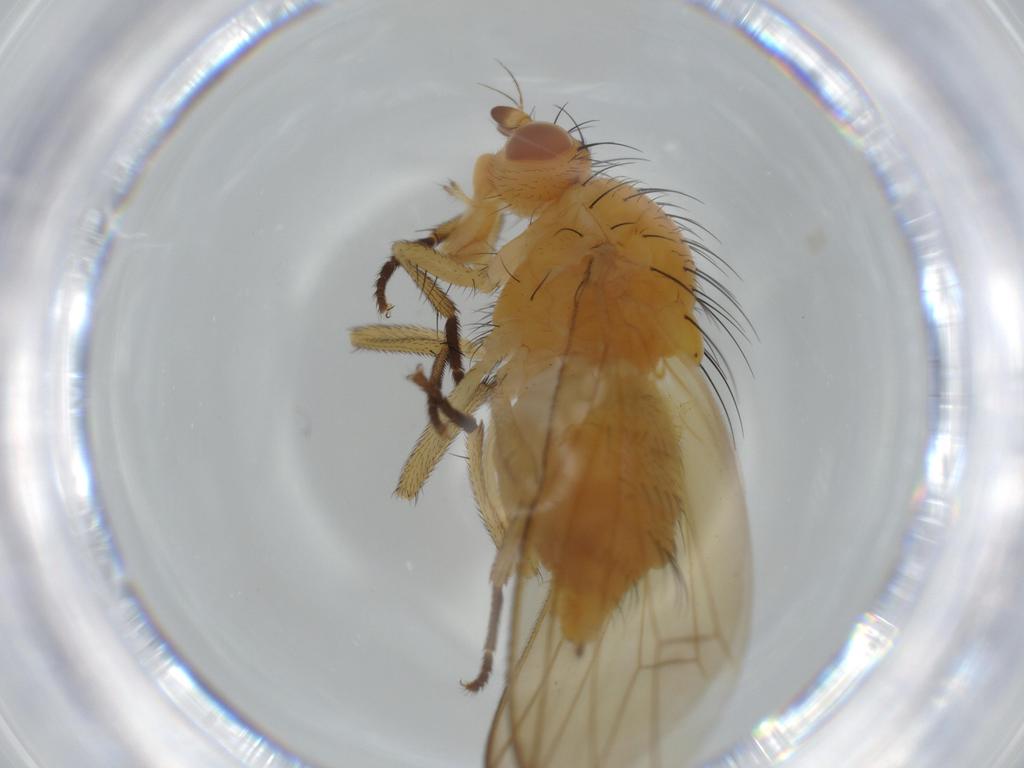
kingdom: Animalia
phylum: Arthropoda
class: Insecta
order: Diptera
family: Lauxaniidae
